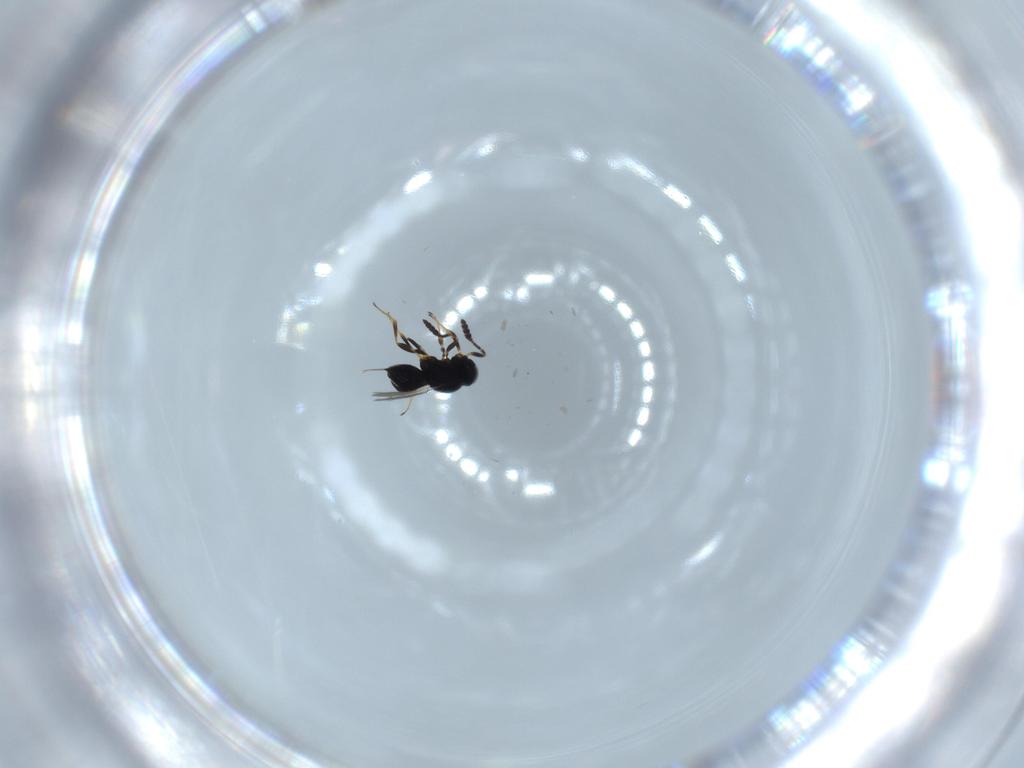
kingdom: Animalia
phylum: Arthropoda
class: Insecta
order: Hymenoptera
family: Scelionidae
